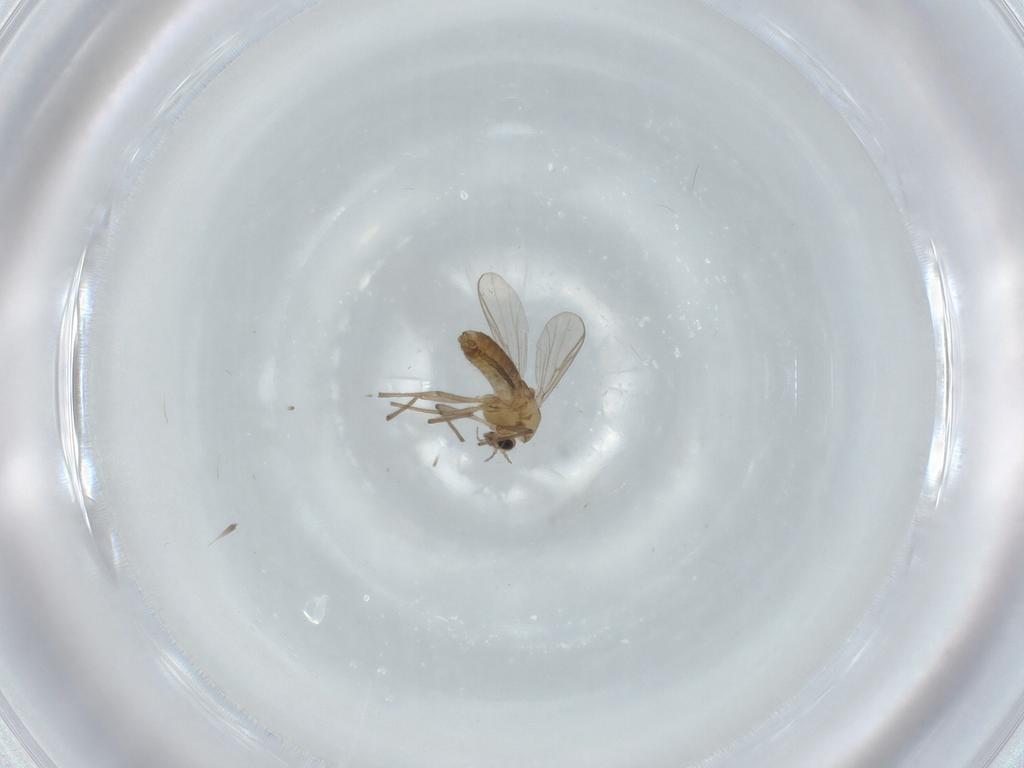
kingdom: Animalia
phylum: Arthropoda
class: Insecta
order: Diptera
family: Chironomidae
